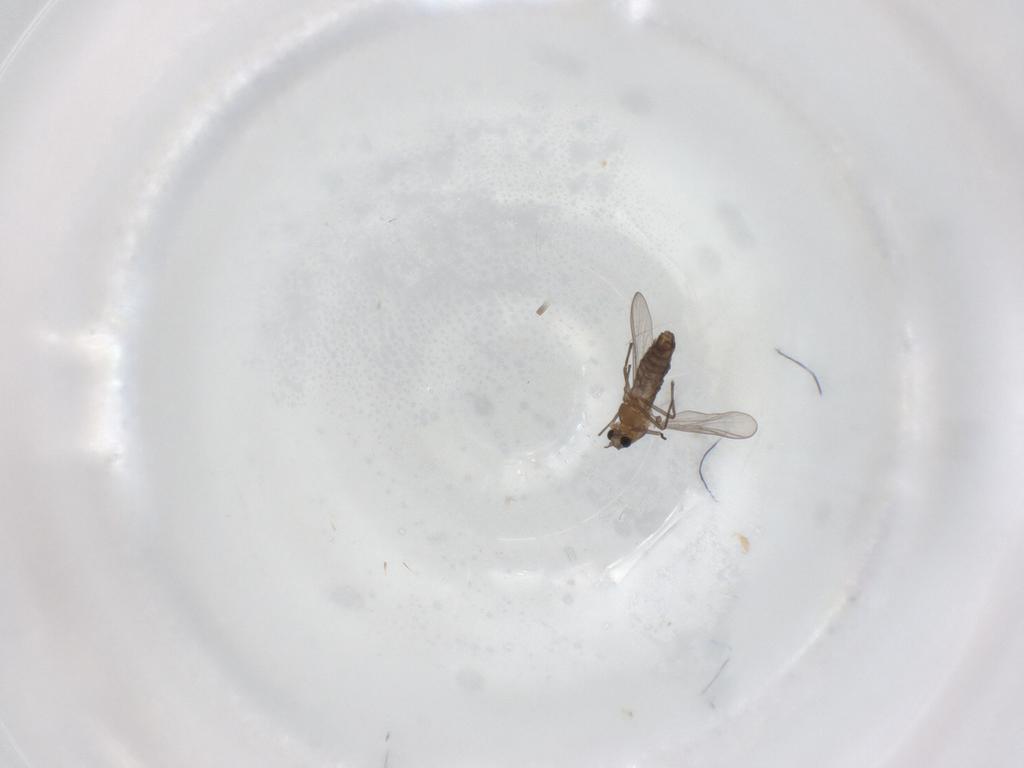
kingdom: Animalia
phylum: Arthropoda
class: Insecta
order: Diptera
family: Chironomidae
